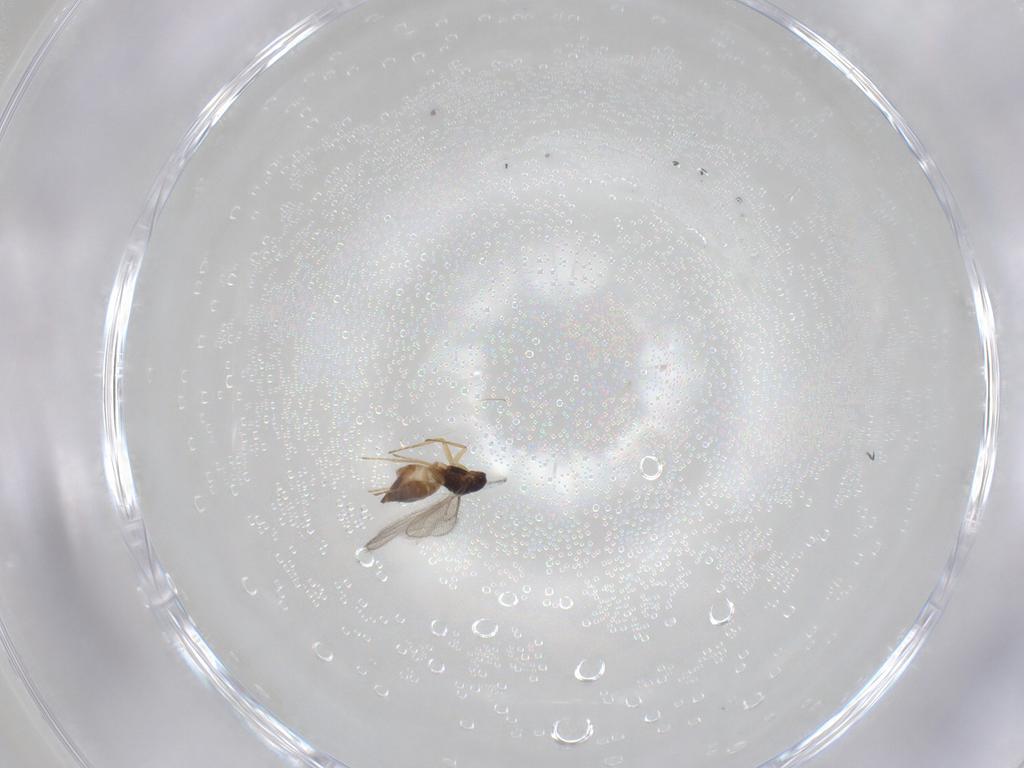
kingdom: Animalia
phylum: Arthropoda
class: Insecta
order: Hymenoptera
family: Eulophidae
